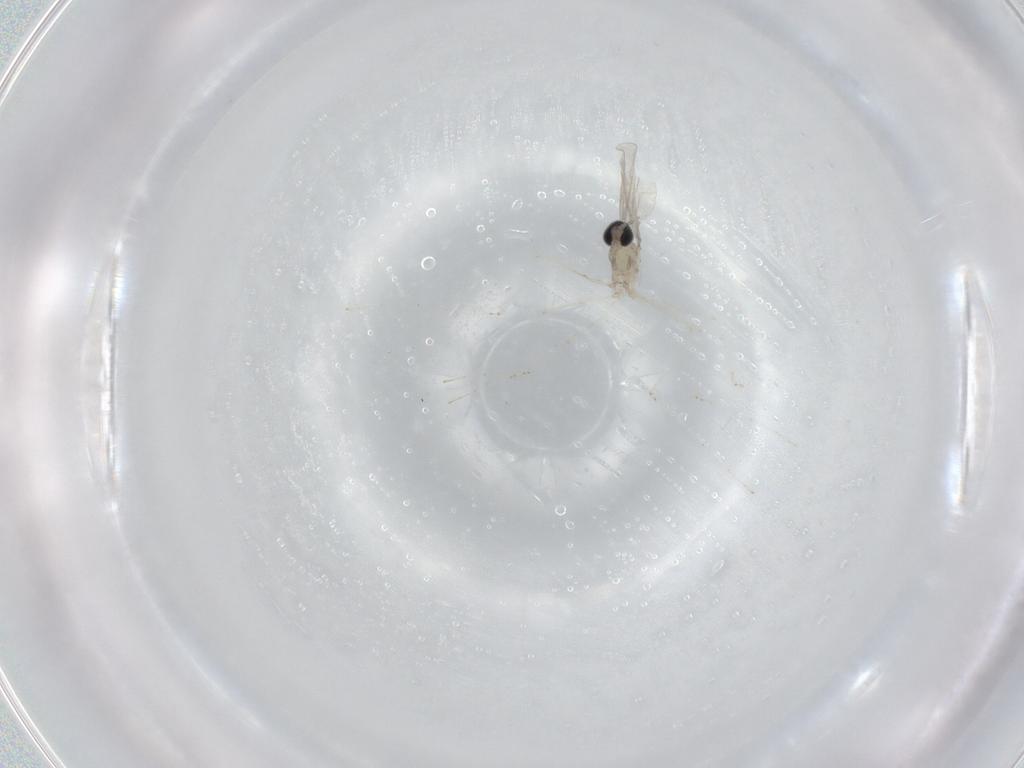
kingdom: Animalia
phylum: Arthropoda
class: Insecta
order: Diptera
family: Cecidomyiidae
